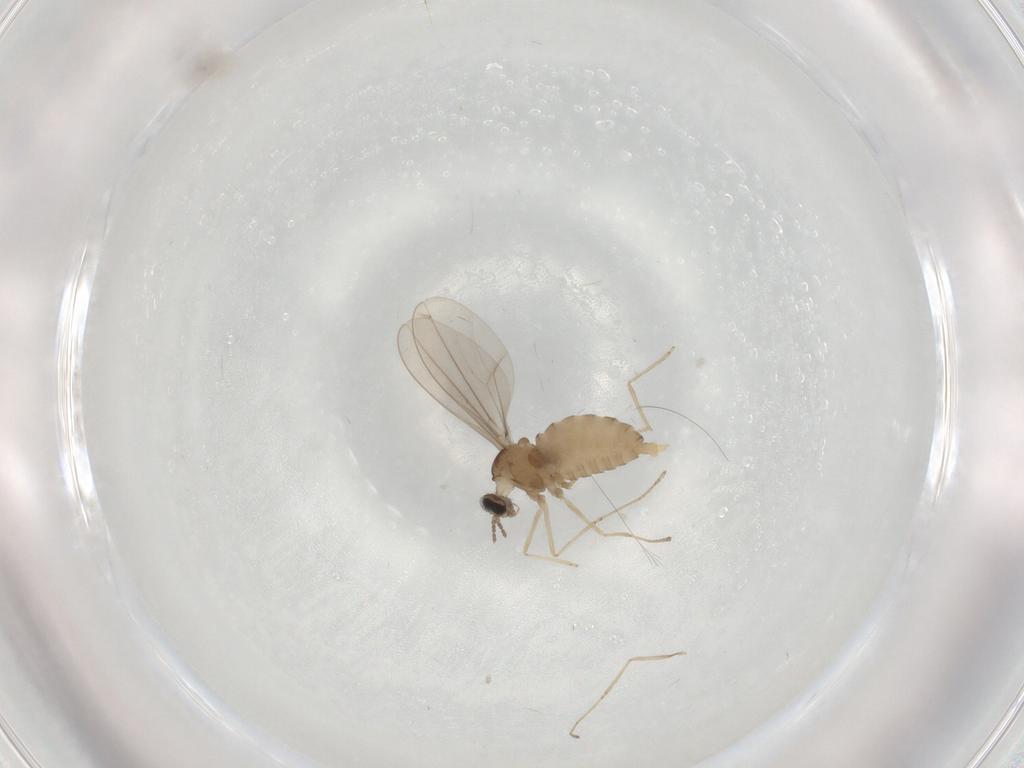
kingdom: Animalia
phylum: Arthropoda
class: Insecta
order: Diptera
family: Cecidomyiidae
